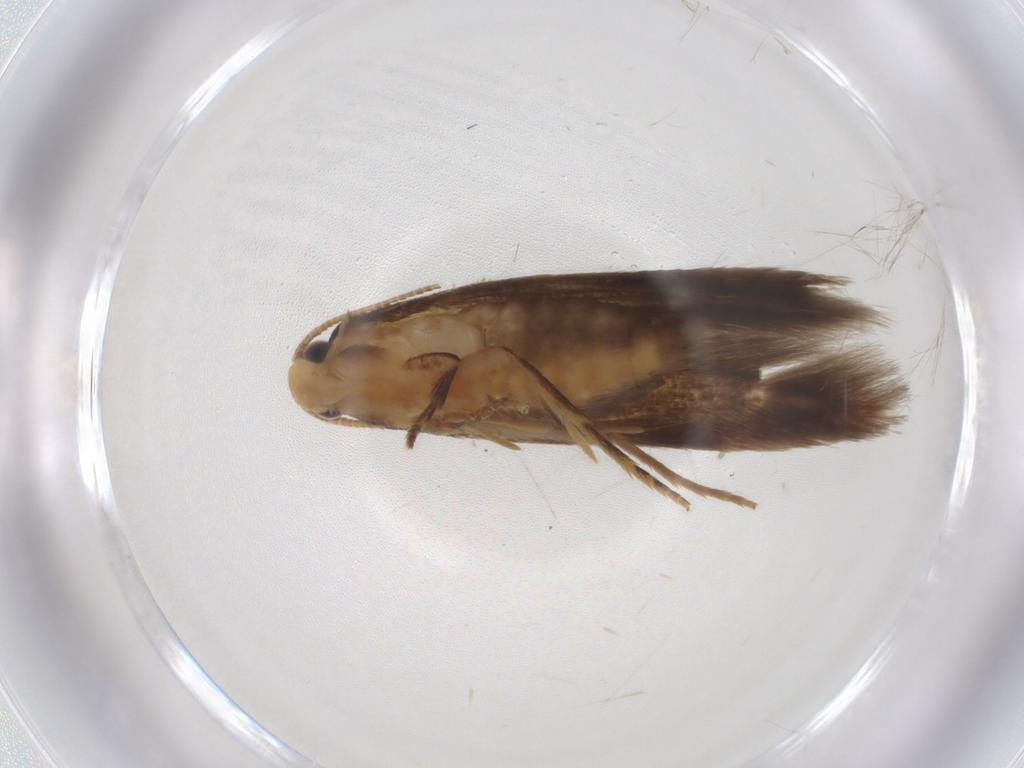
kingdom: Animalia
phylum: Arthropoda
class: Insecta
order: Lepidoptera
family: Tineidae
